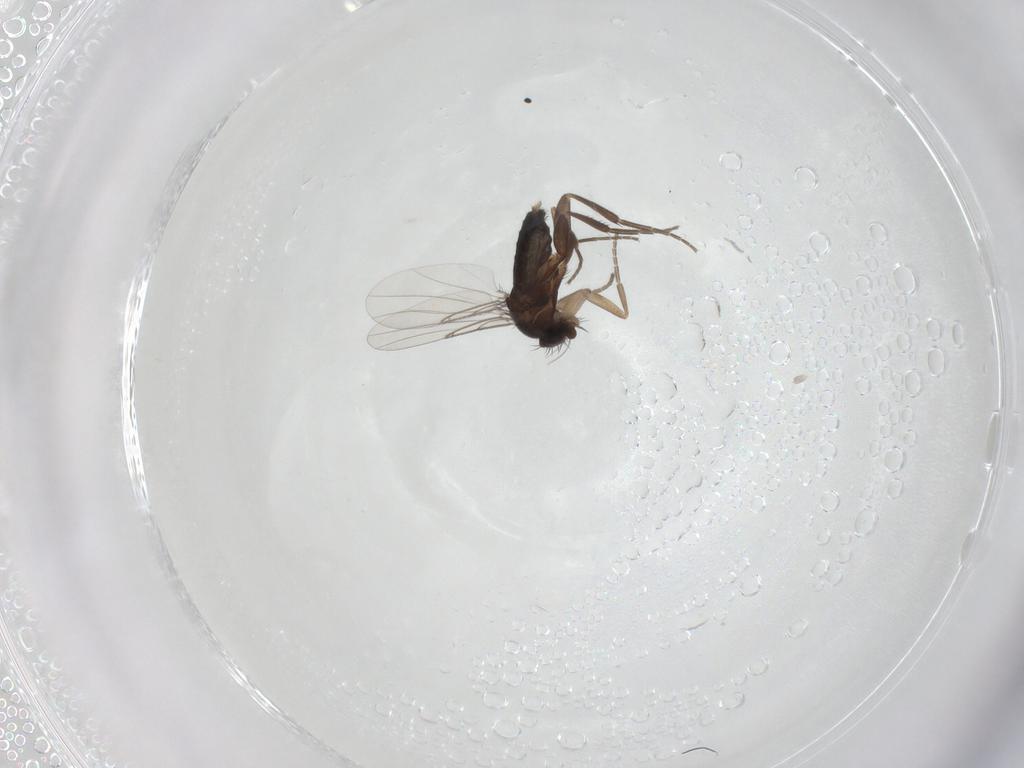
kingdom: Animalia
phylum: Arthropoda
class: Insecta
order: Diptera
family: Phoridae
